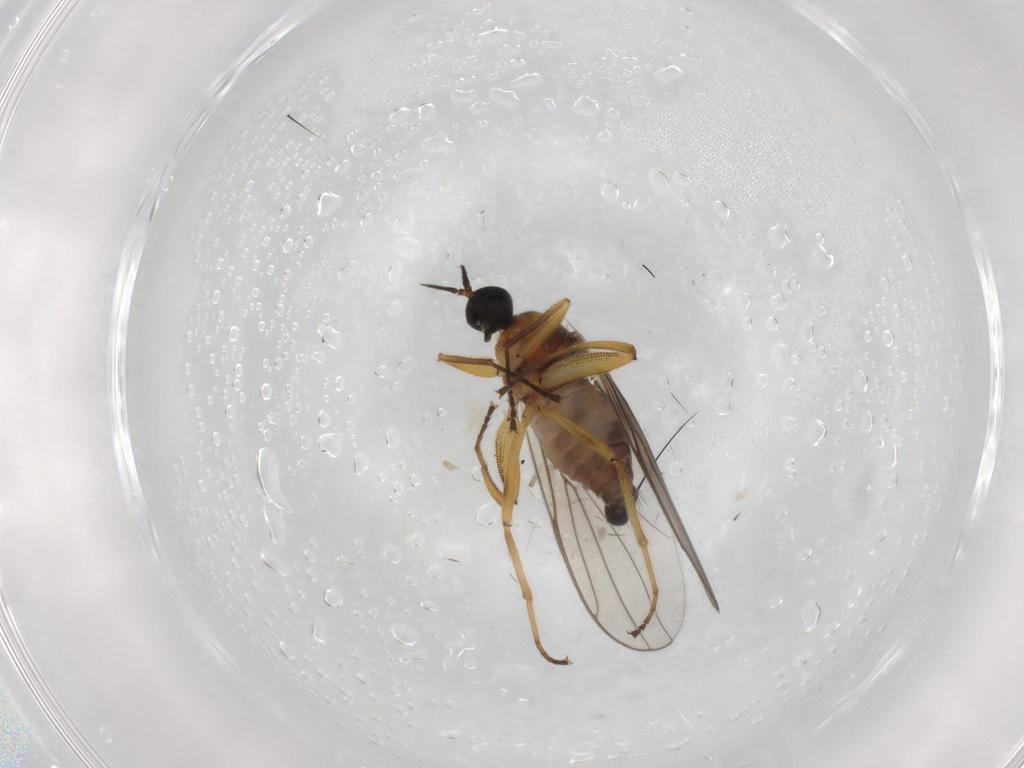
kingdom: Animalia
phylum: Arthropoda
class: Insecta
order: Diptera
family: Hybotidae
